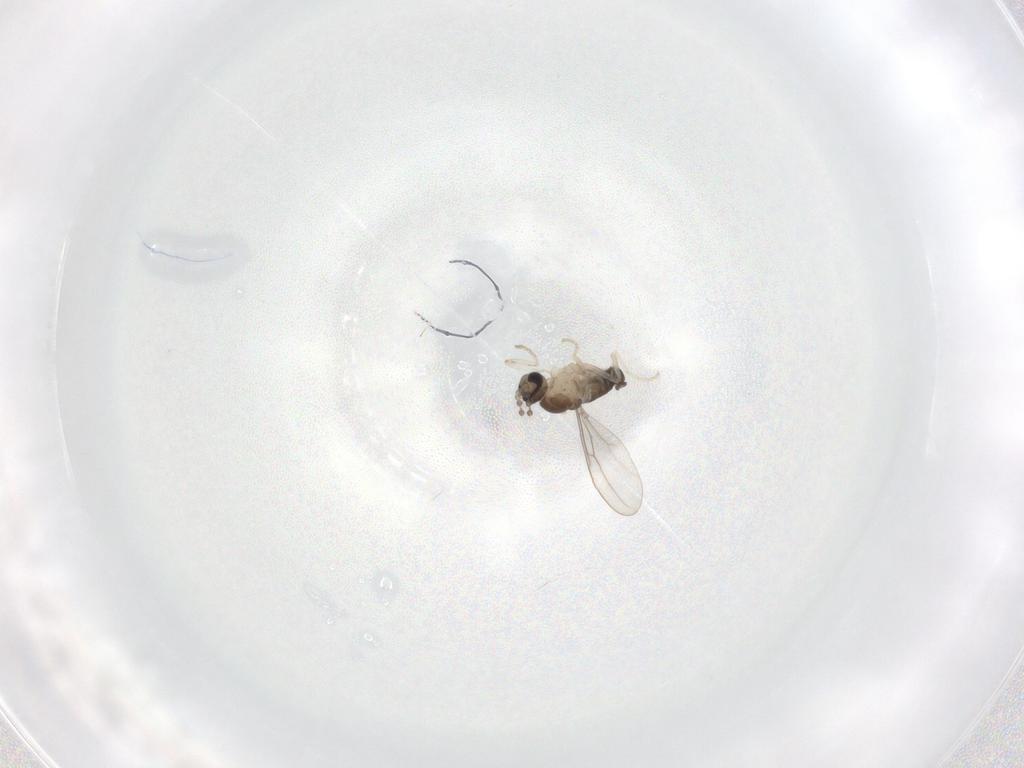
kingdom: Animalia
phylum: Arthropoda
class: Insecta
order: Diptera
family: Cecidomyiidae
